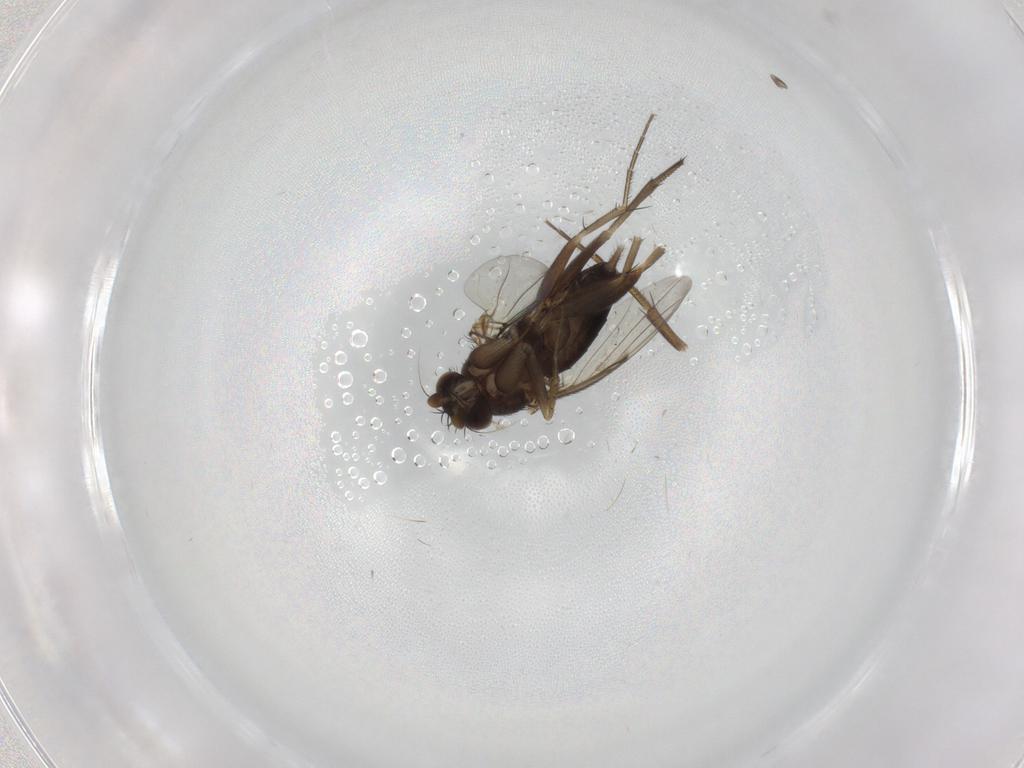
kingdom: Animalia
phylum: Arthropoda
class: Insecta
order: Diptera
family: Phoridae
